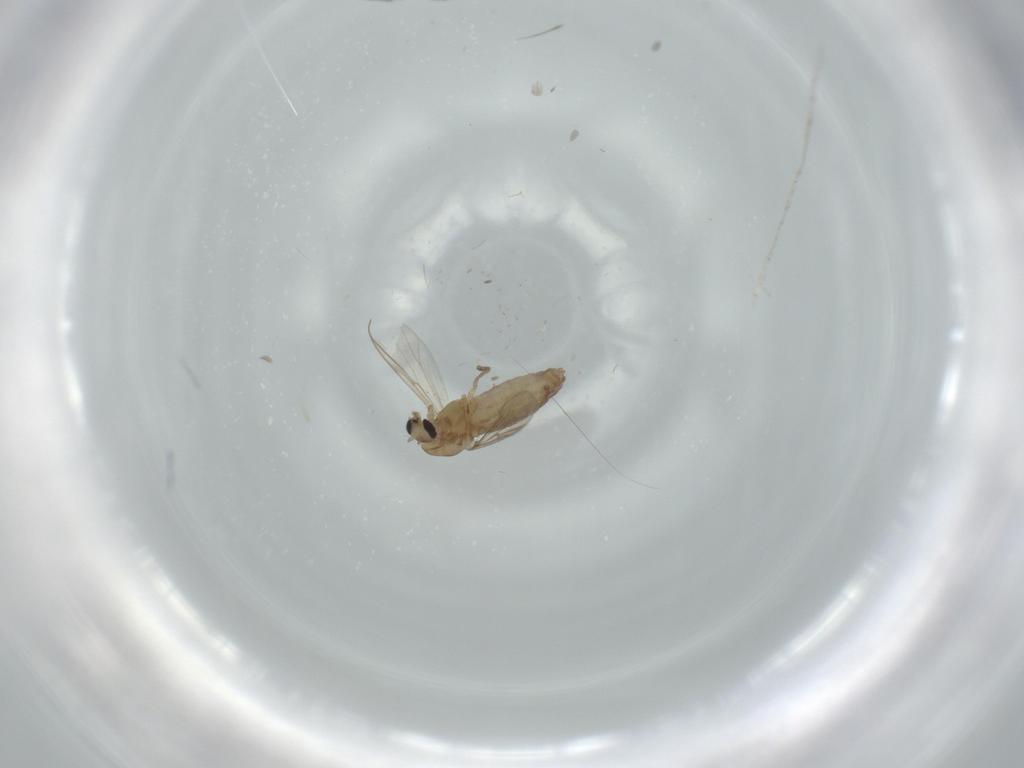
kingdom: Animalia
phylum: Arthropoda
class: Insecta
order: Diptera
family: Chironomidae
